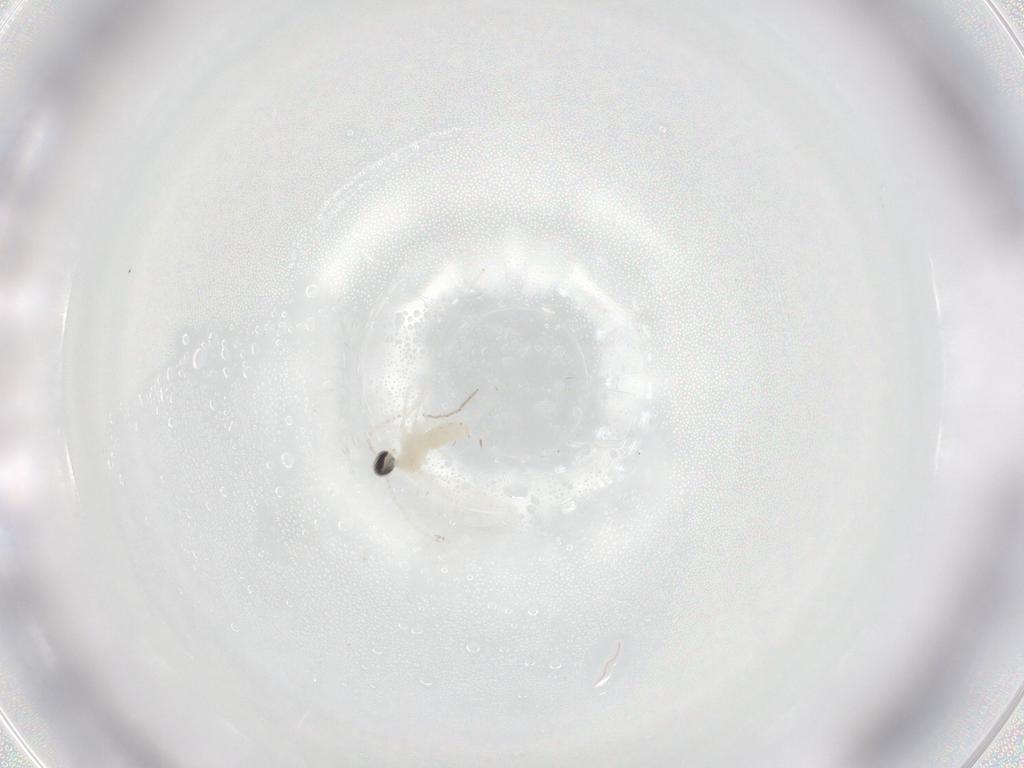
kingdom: Animalia
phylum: Arthropoda
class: Insecta
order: Diptera
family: Cecidomyiidae
